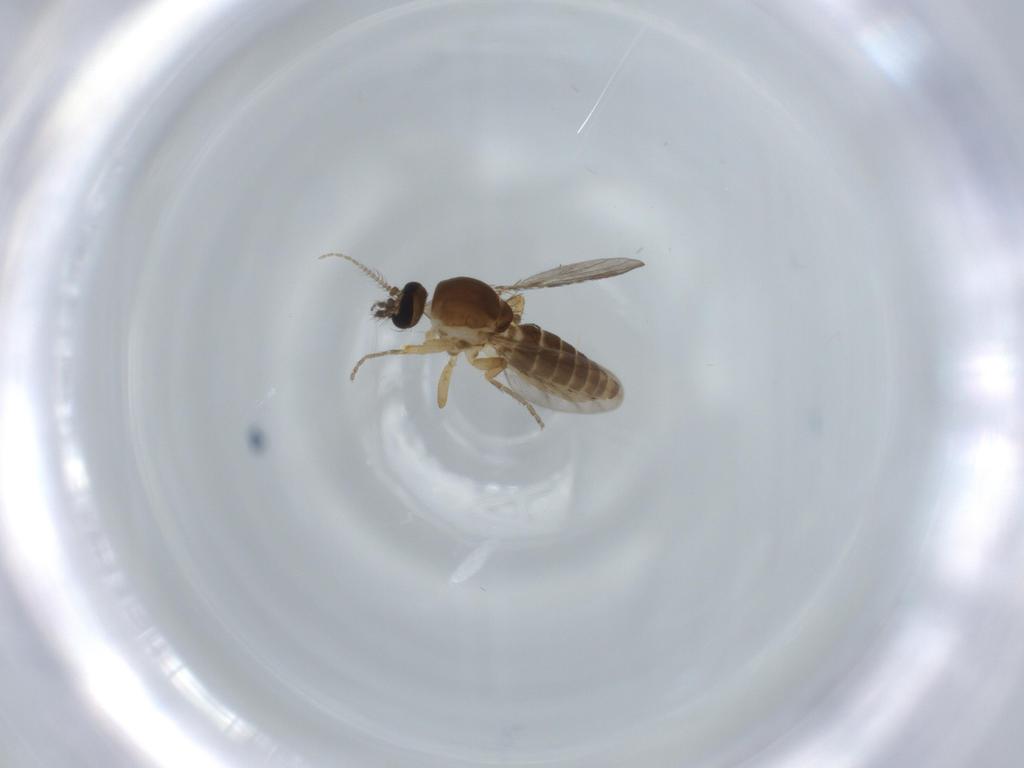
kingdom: Animalia
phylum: Arthropoda
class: Insecta
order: Diptera
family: Ceratopogonidae
